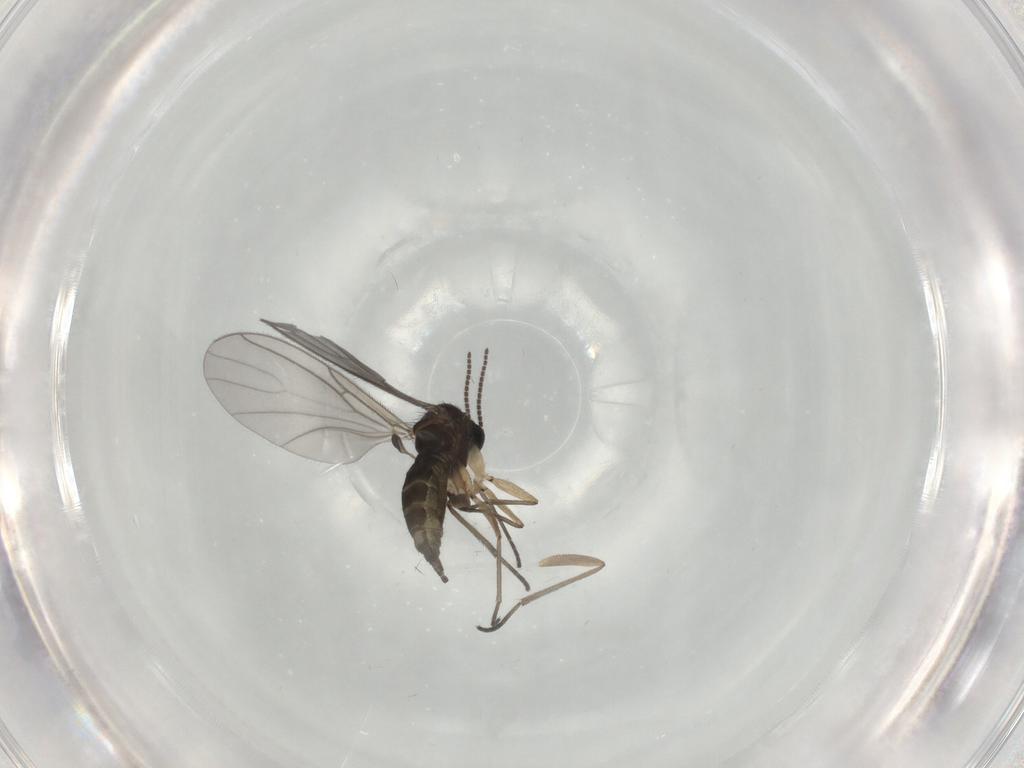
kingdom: Animalia
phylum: Arthropoda
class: Insecta
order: Diptera
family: Sciaridae
